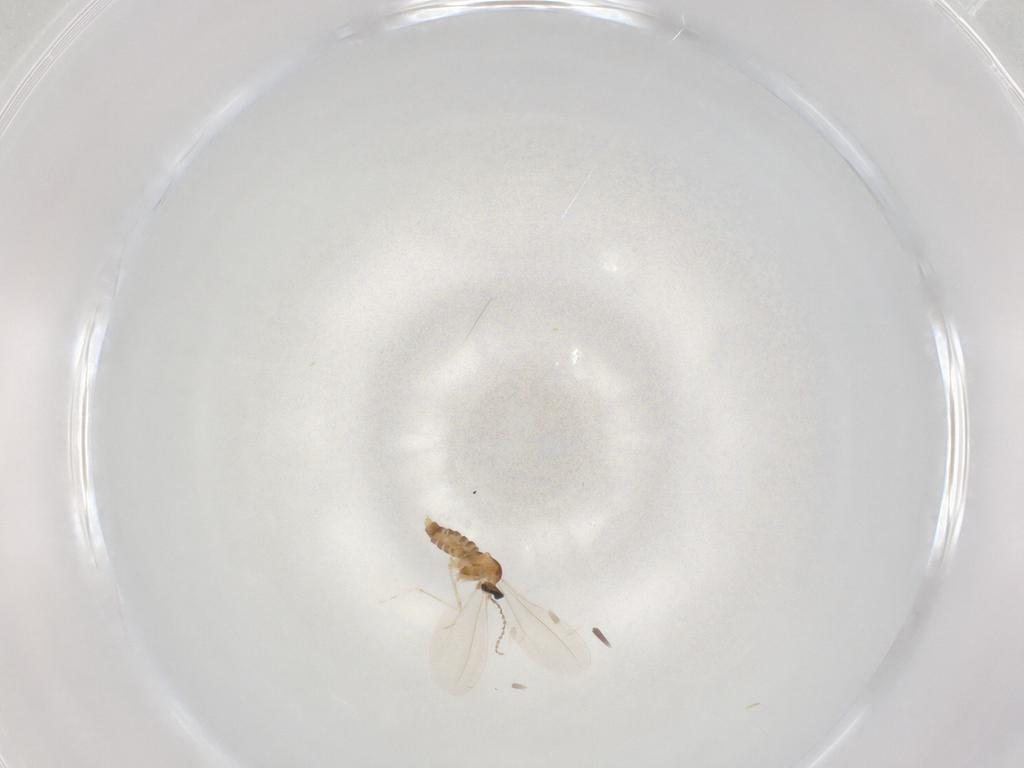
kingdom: Animalia
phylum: Arthropoda
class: Insecta
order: Diptera
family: Cecidomyiidae
